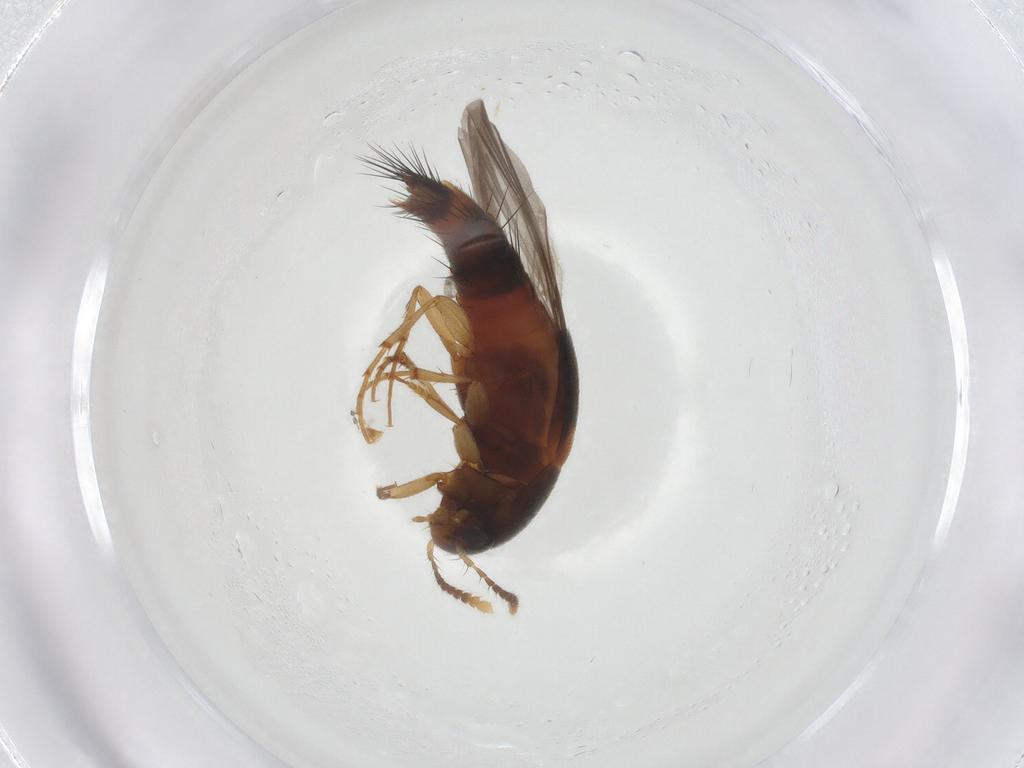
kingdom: Animalia
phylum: Arthropoda
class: Insecta
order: Coleoptera
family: Staphylinidae
